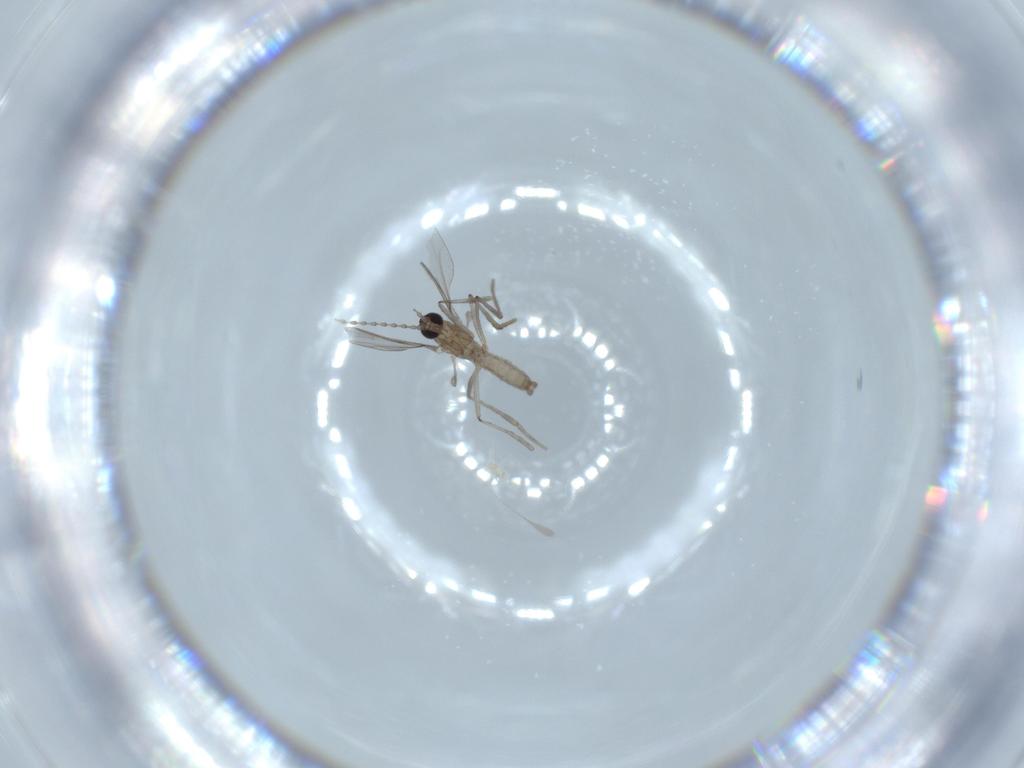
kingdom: Animalia
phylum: Arthropoda
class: Insecta
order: Diptera
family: Cecidomyiidae
